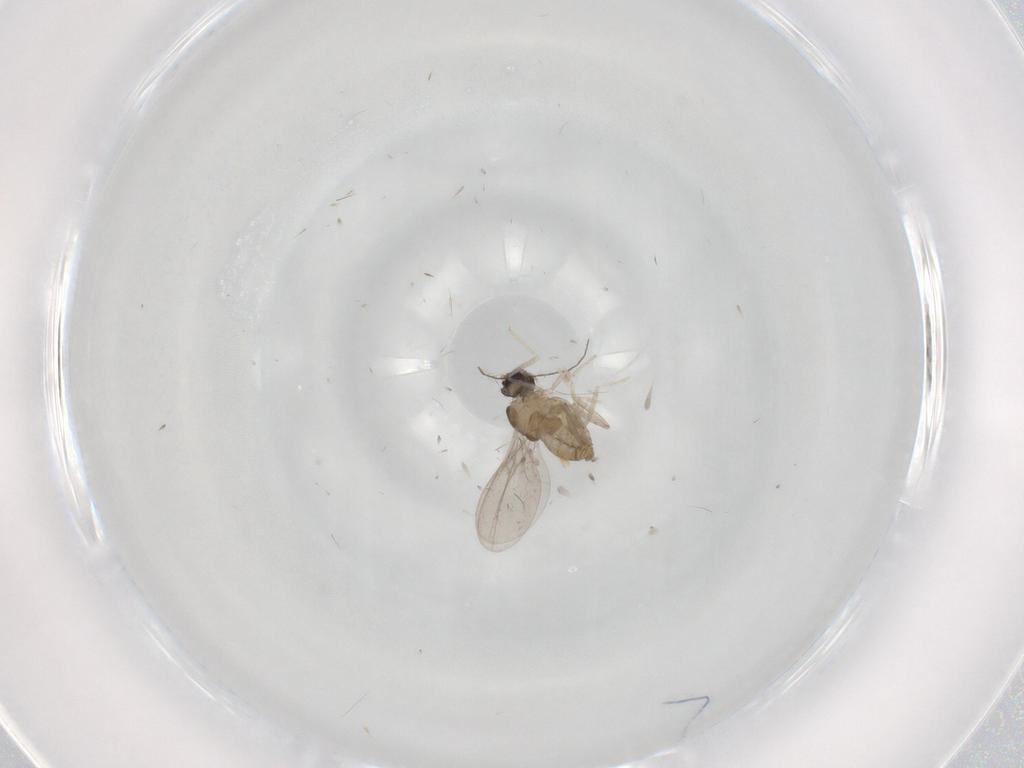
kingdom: Animalia
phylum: Arthropoda
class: Insecta
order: Diptera
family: Cecidomyiidae
